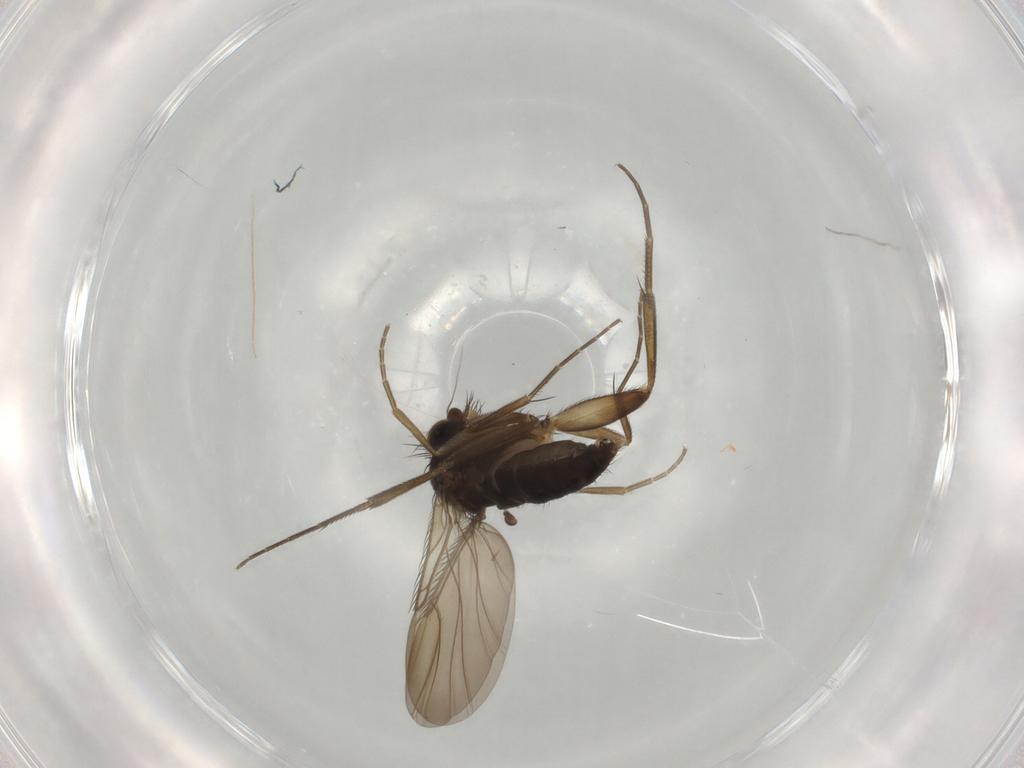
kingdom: Animalia
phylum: Arthropoda
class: Insecta
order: Diptera
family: Phoridae
